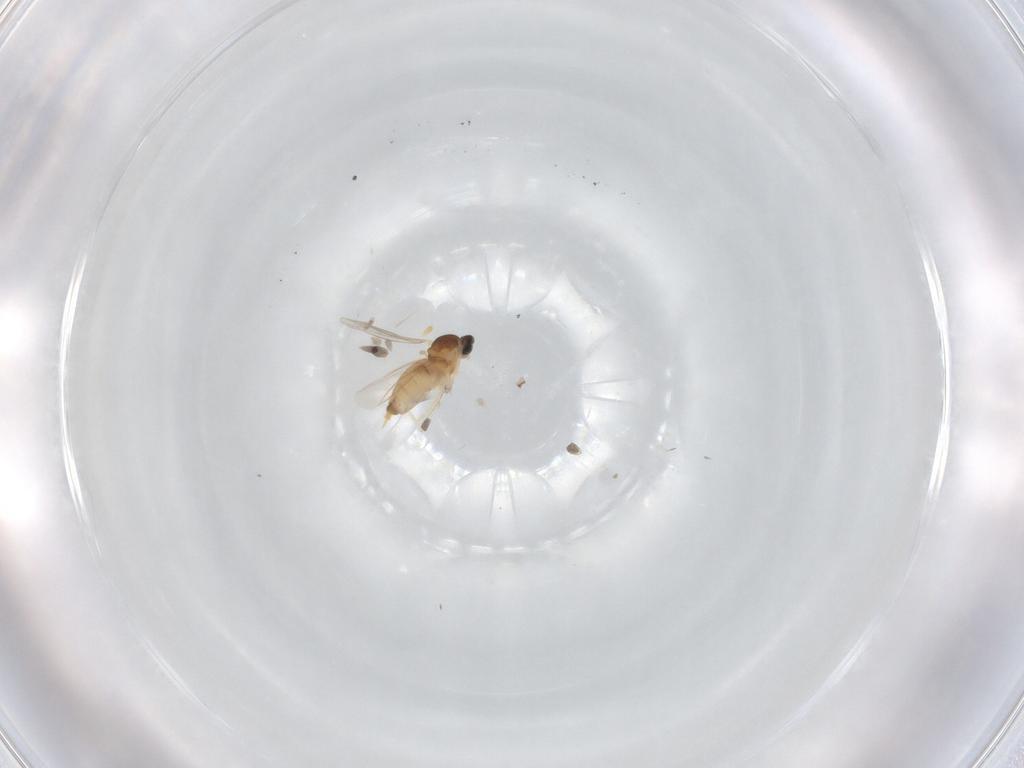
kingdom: Animalia
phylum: Arthropoda
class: Insecta
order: Diptera
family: Cecidomyiidae
